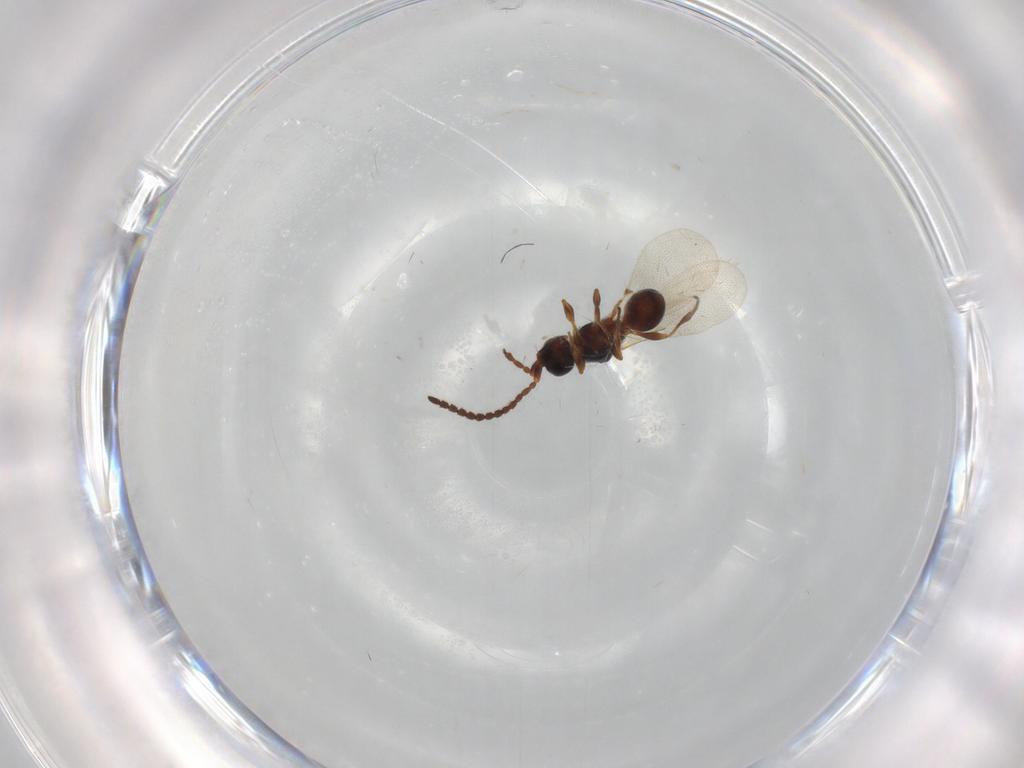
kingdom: Animalia
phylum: Arthropoda
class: Insecta
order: Hymenoptera
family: Diapriidae
